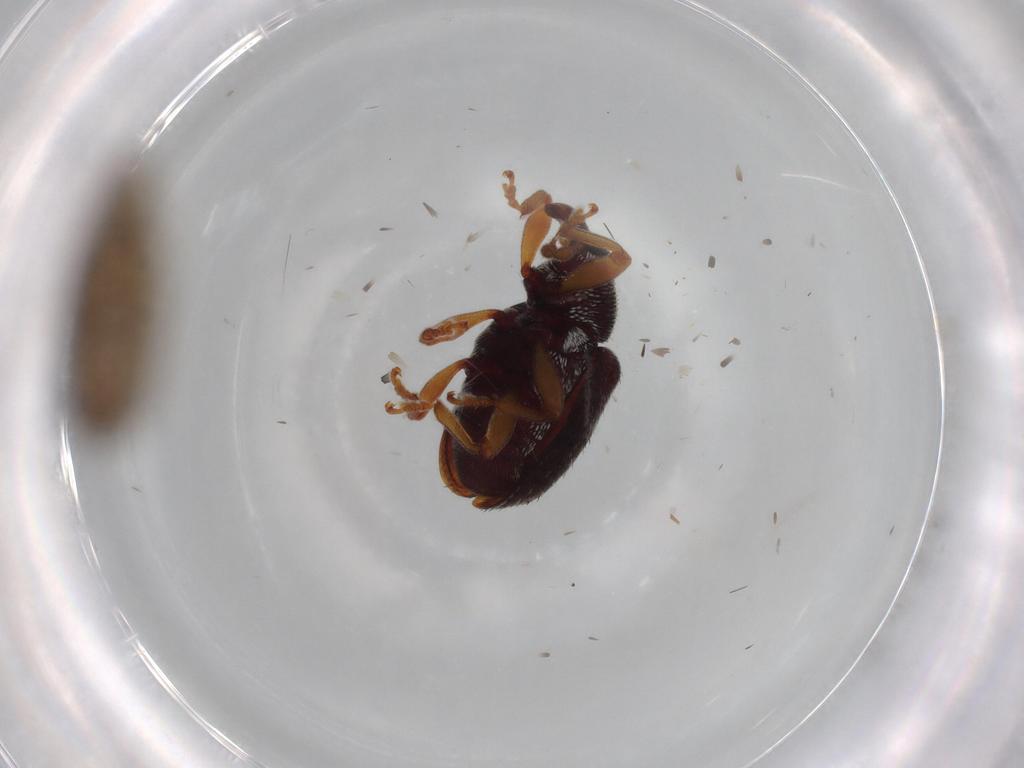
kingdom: Animalia
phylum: Arthropoda
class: Insecta
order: Coleoptera
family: Curculionidae
